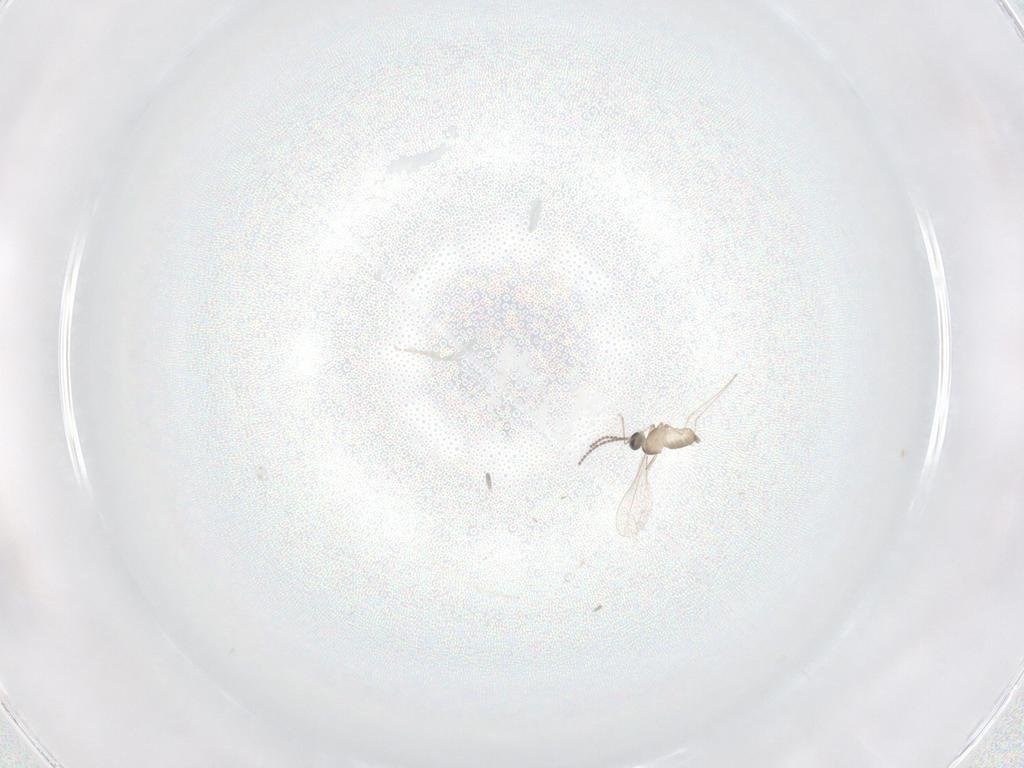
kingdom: Animalia
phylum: Arthropoda
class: Insecta
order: Diptera
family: Cecidomyiidae
